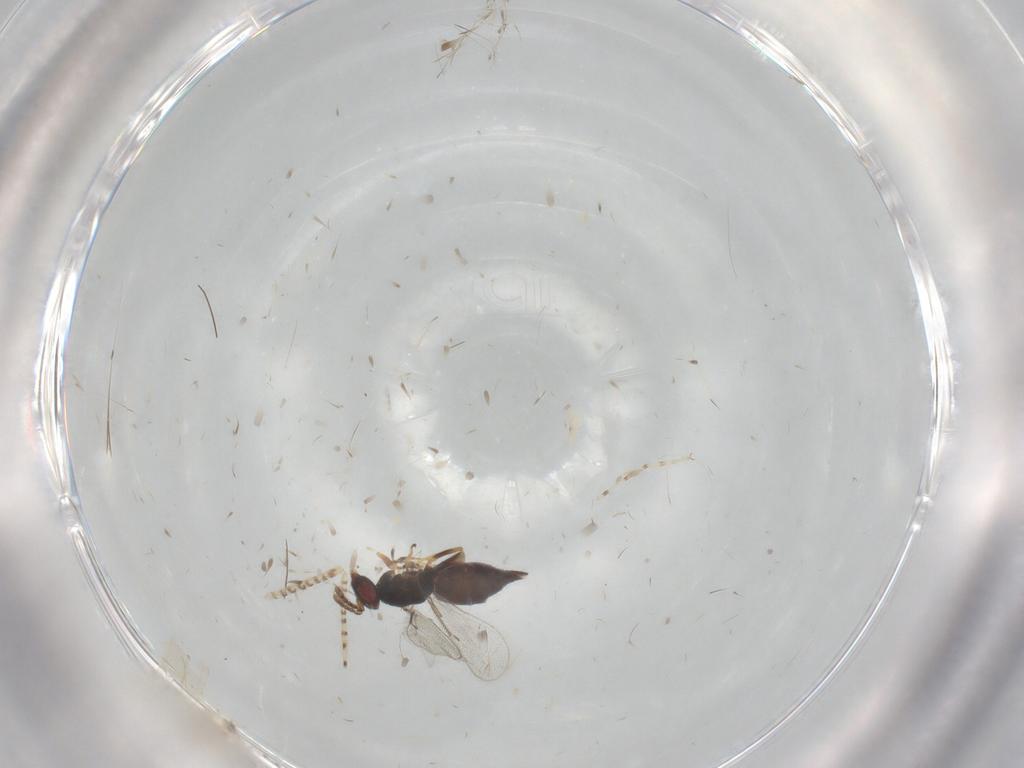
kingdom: Animalia
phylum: Arthropoda
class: Insecta
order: Hymenoptera
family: Eulophidae
